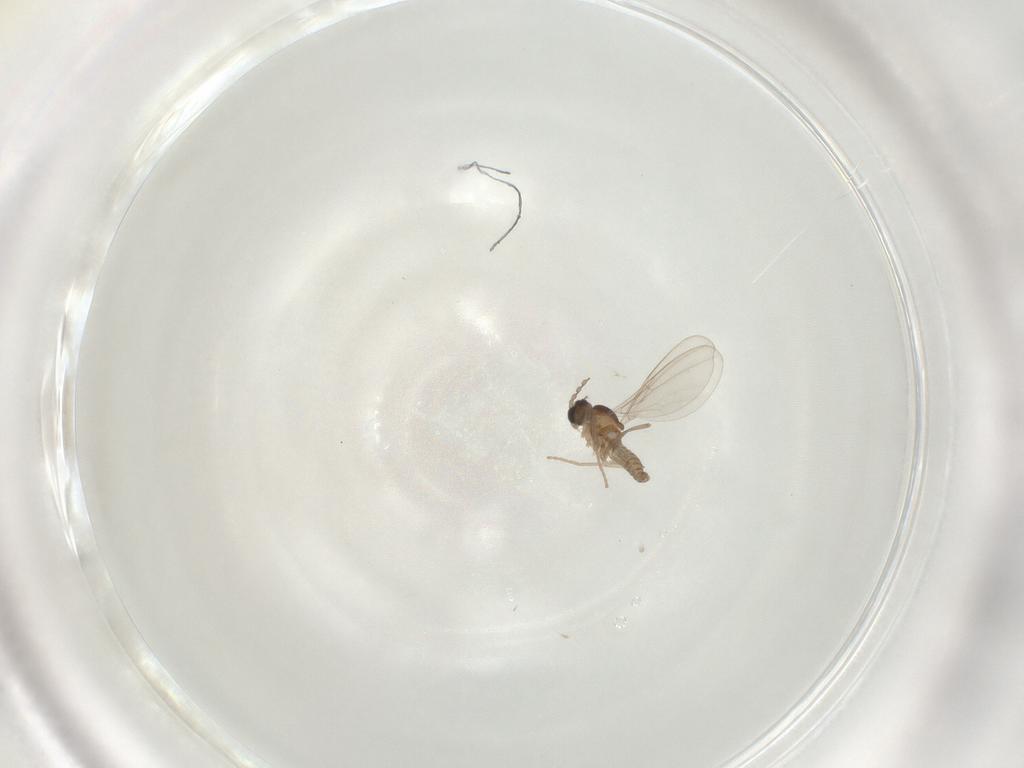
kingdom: Animalia
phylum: Arthropoda
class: Insecta
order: Diptera
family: Cecidomyiidae
